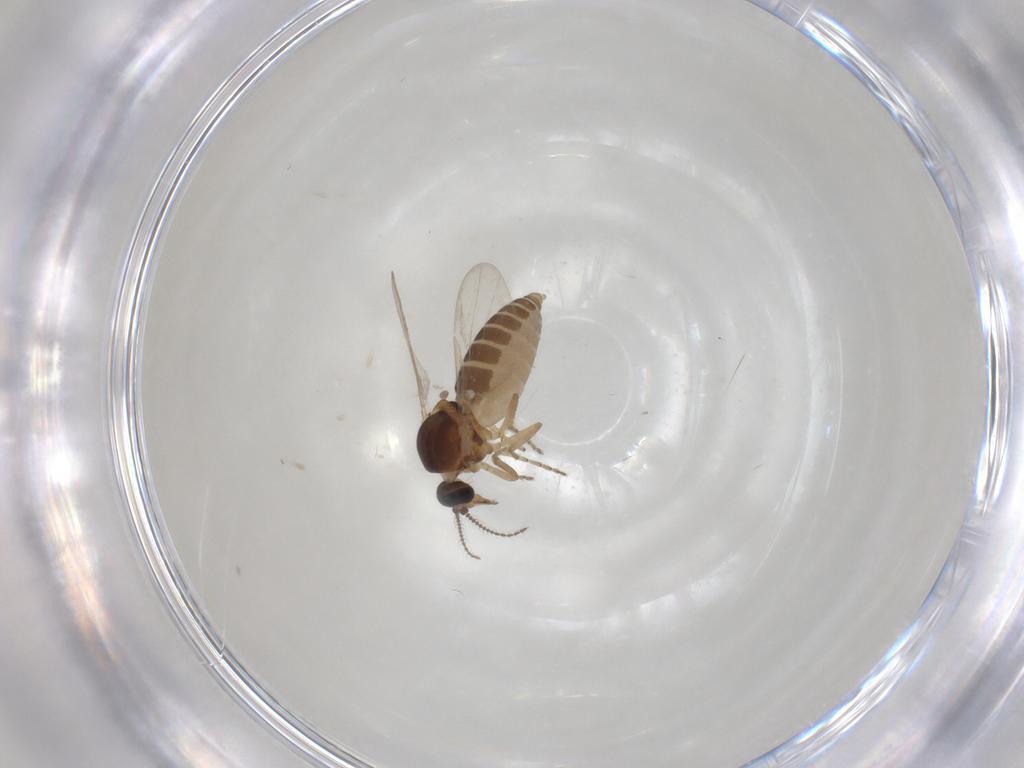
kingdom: Animalia
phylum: Arthropoda
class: Insecta
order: Diptera
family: Ceratopogonidae
